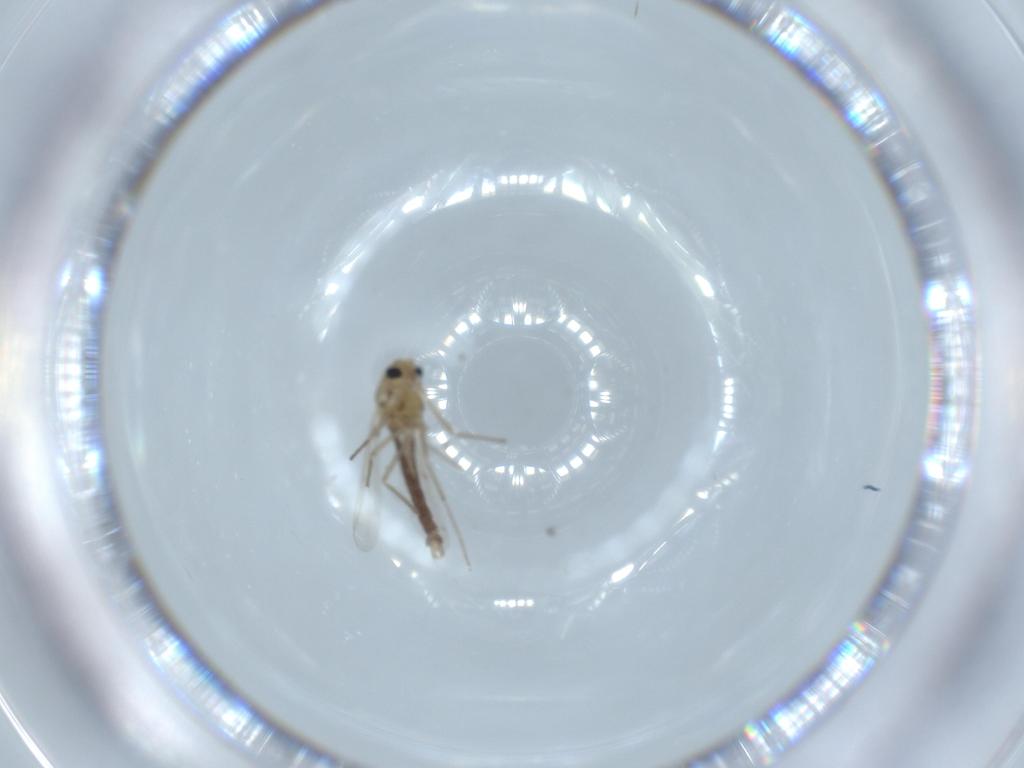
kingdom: Animalia
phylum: Arthropoda
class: Insecta
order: Diptera
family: Chironomidae
